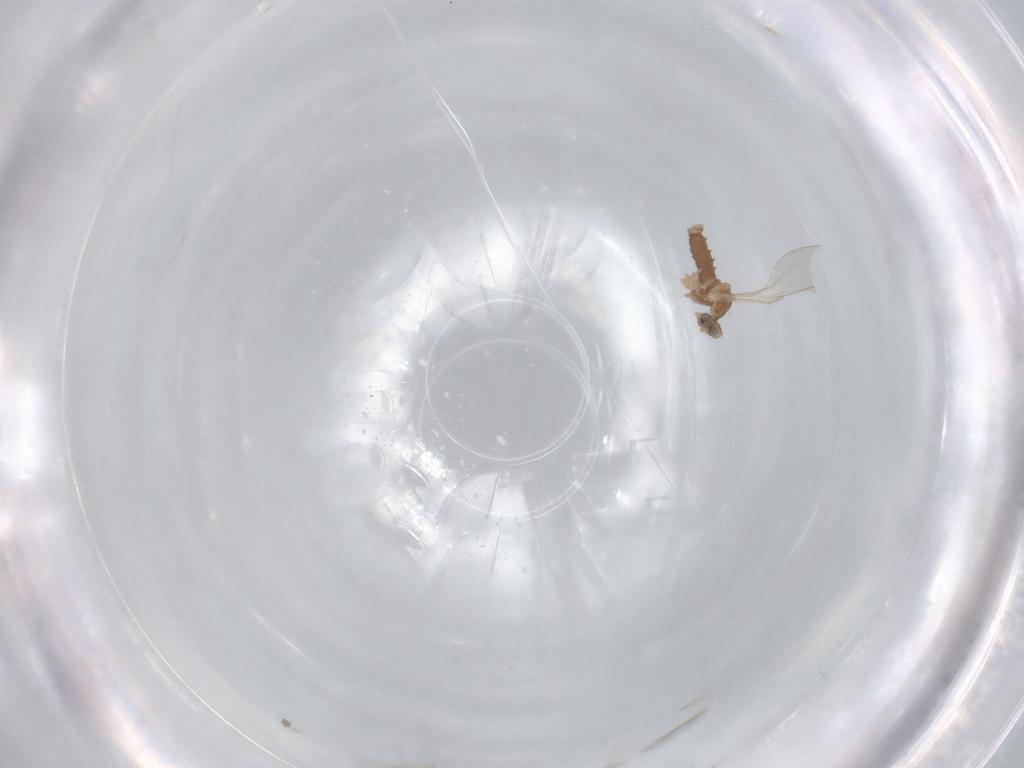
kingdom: Animalia
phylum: Arthropoda
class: Insecta
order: Diptera
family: Cecidomyiidae
